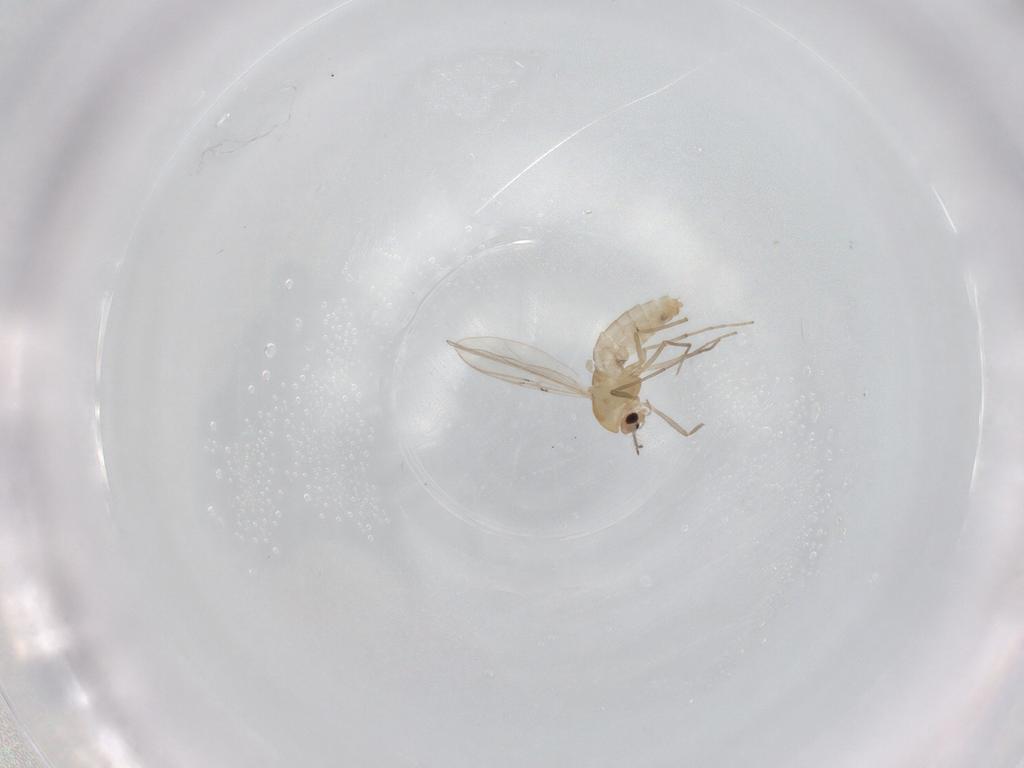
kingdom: Animalia
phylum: Arthropoda
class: Insecta
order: Diptera
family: Chironomidae
